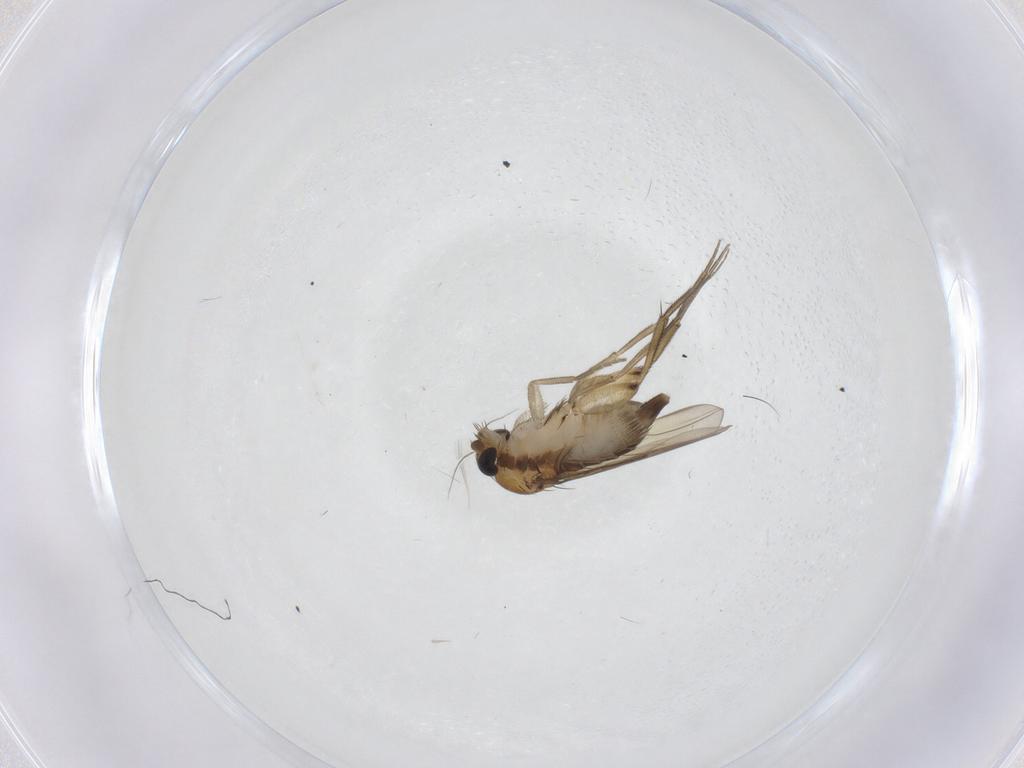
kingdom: Animalia
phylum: Arthropoda
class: Insecta
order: Diptera
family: Phoridae
